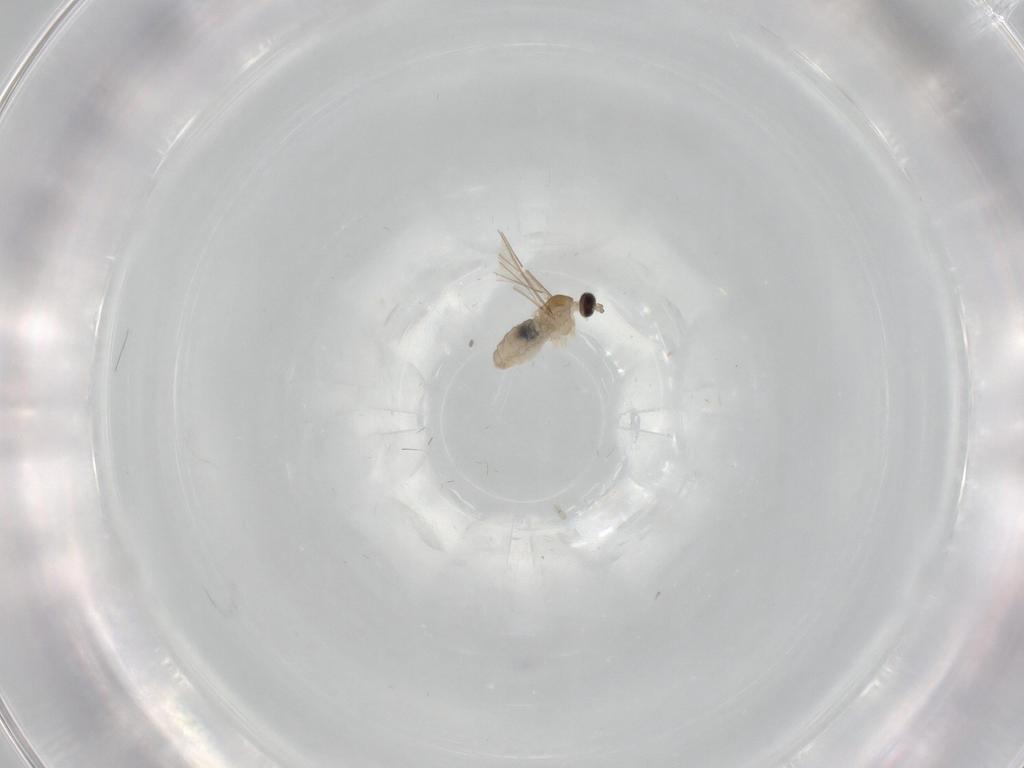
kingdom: Animalia
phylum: Arthropoda
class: Insecta
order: Diptera
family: Cecidomyiidae
